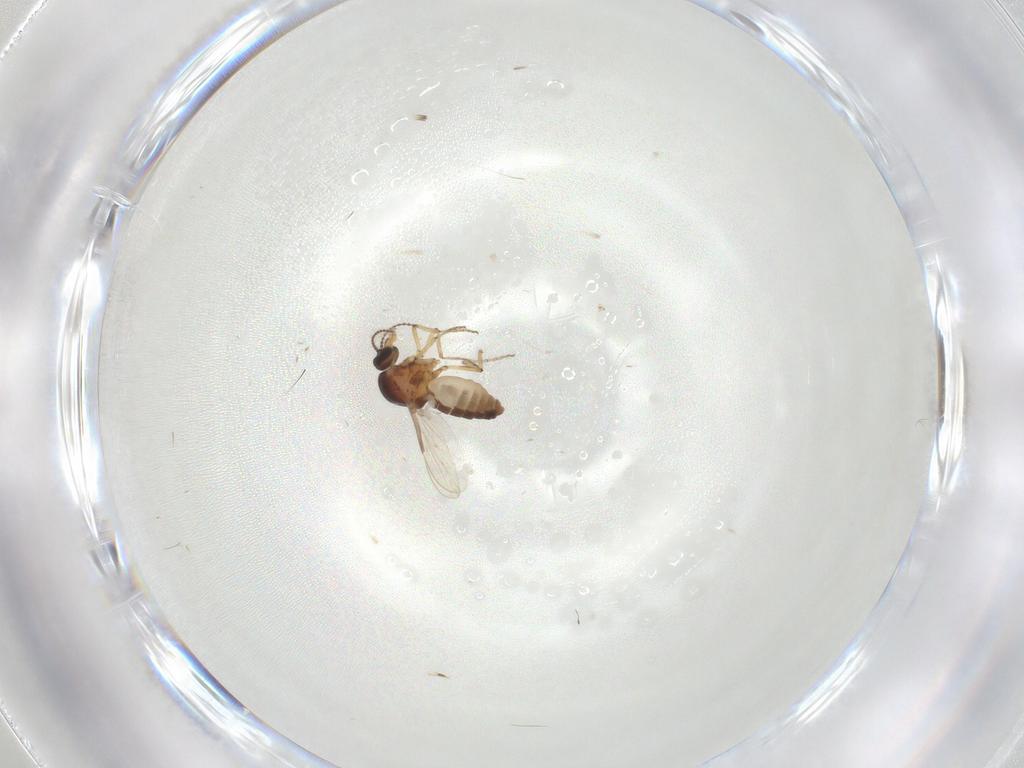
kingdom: Animalia
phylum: Arthropoda
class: Insecta
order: Diptera
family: Ceratopogonidae
